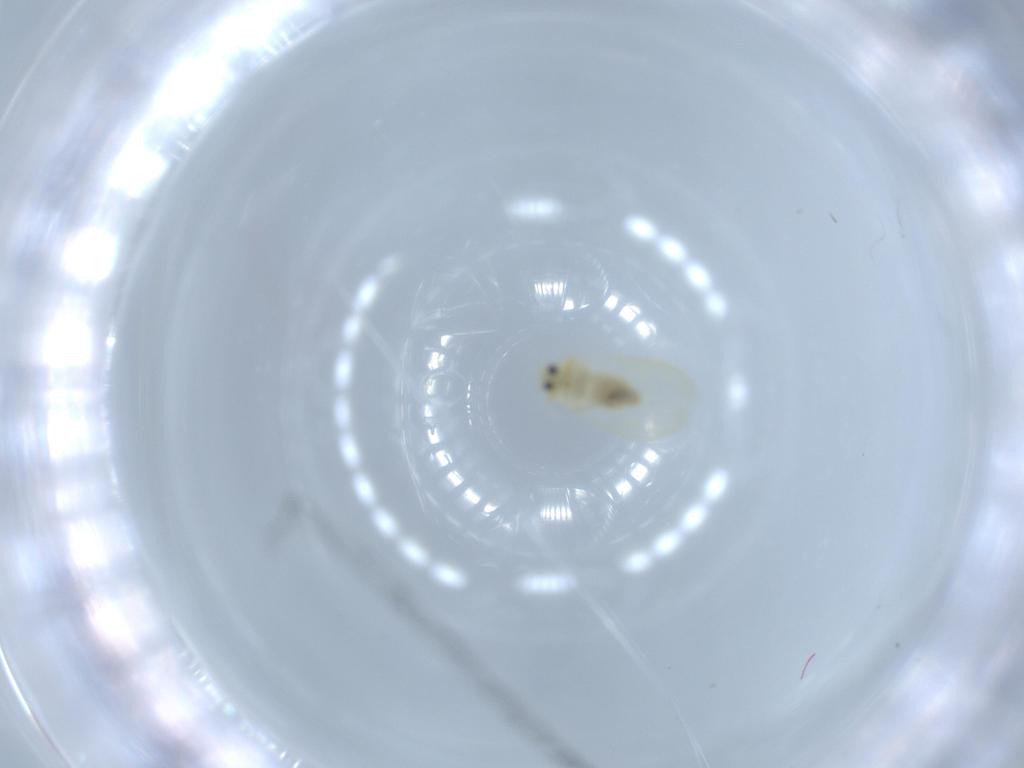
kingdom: Animalia
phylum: Arthropoda
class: Insecta
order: Hemiptera
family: Aleyrodidae
